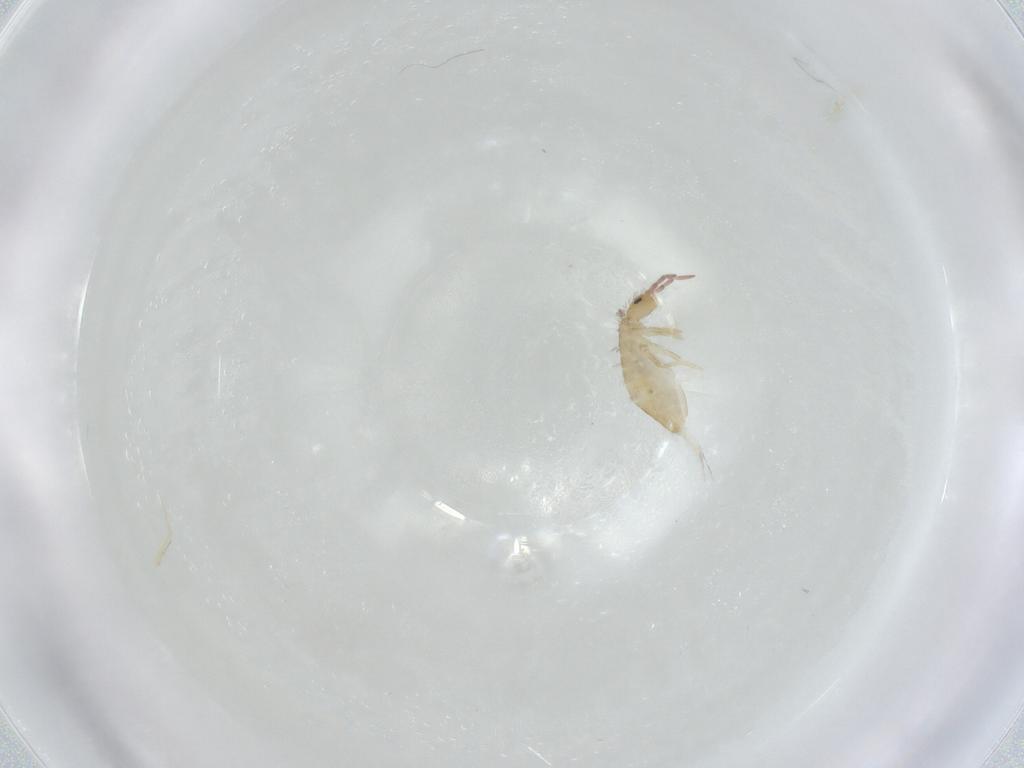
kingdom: Animalia
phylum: Arthropoda
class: Collembola
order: Entomobryomorpha
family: Entomobryidae
